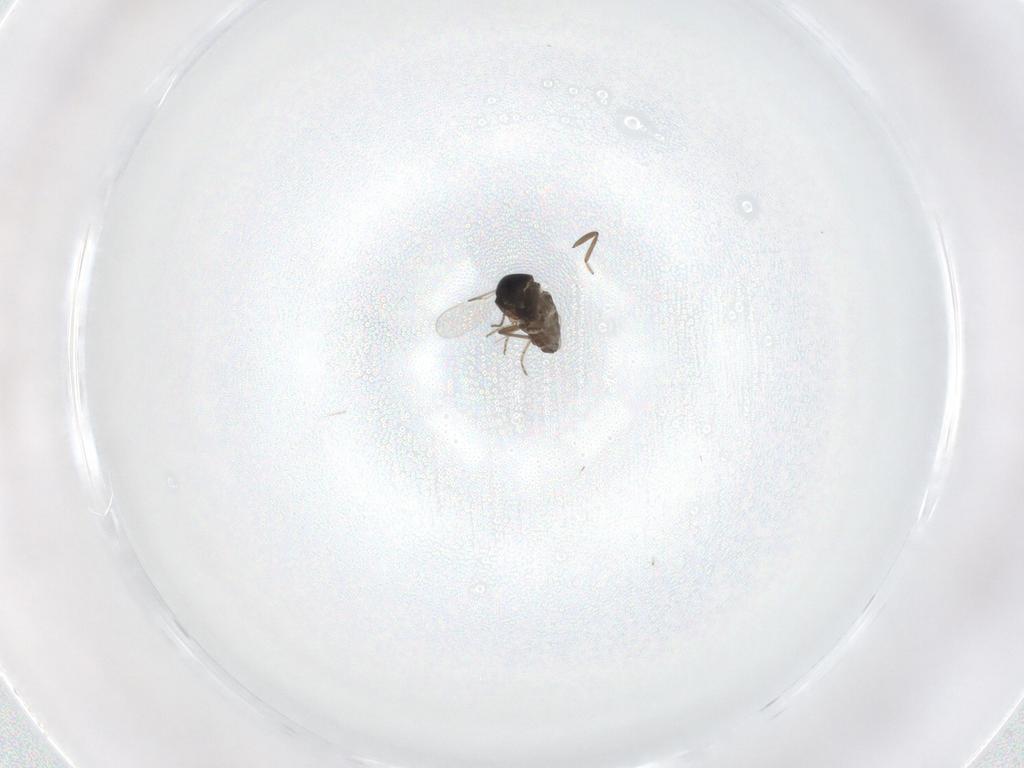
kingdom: Animalia
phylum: Arthropoda
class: Insecta
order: Diptera
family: Ceratopogonidae
